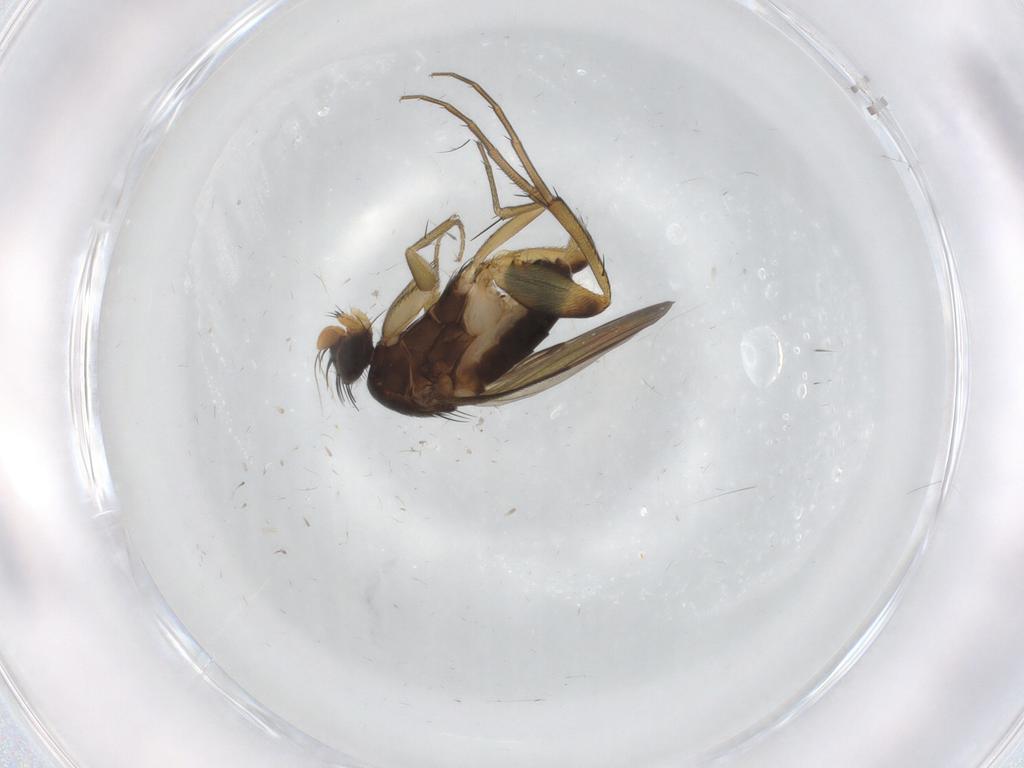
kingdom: Animalia
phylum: Arthropoda
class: Insecta
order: Diptera
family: Phoridae
